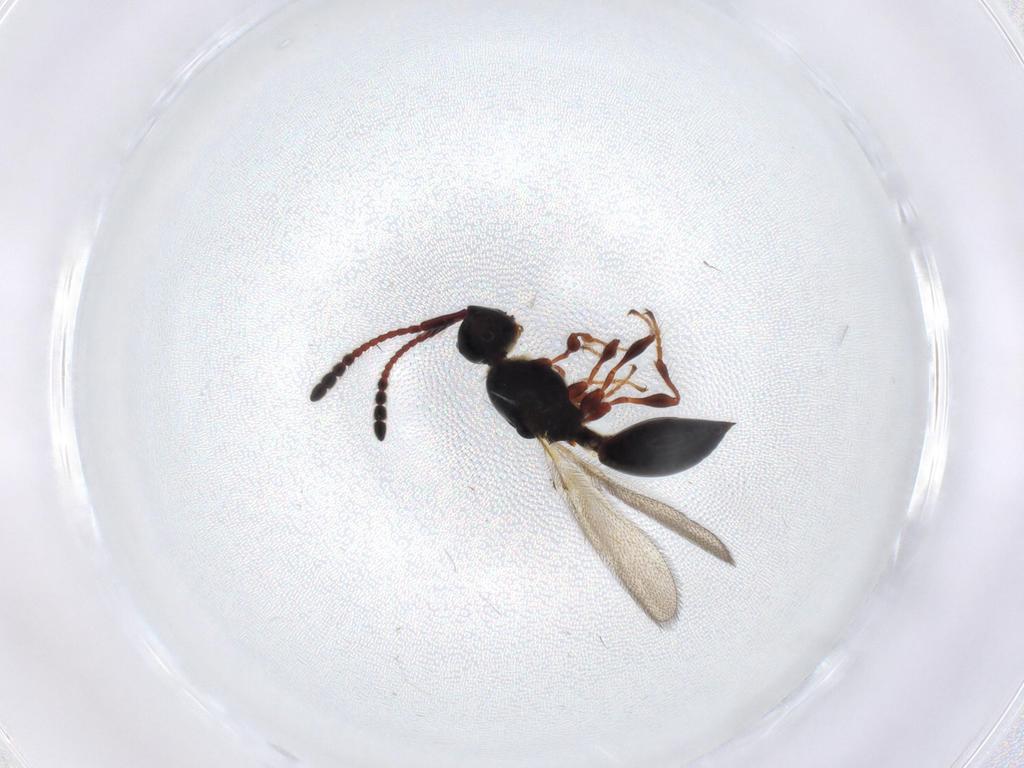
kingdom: Animalia
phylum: Arthropoda
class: Insecta
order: Hymenoptera
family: Diapriidae
